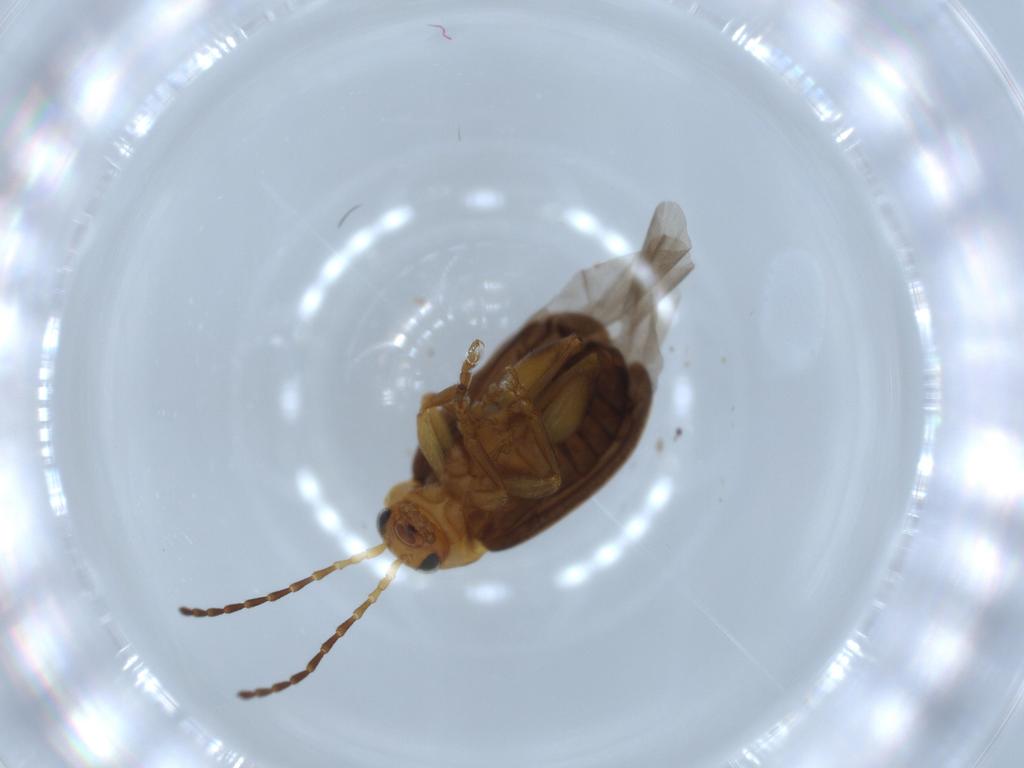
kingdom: Animalia
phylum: Arthropoda
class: Insecta
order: Coleoptera
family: Chrysomelidae
